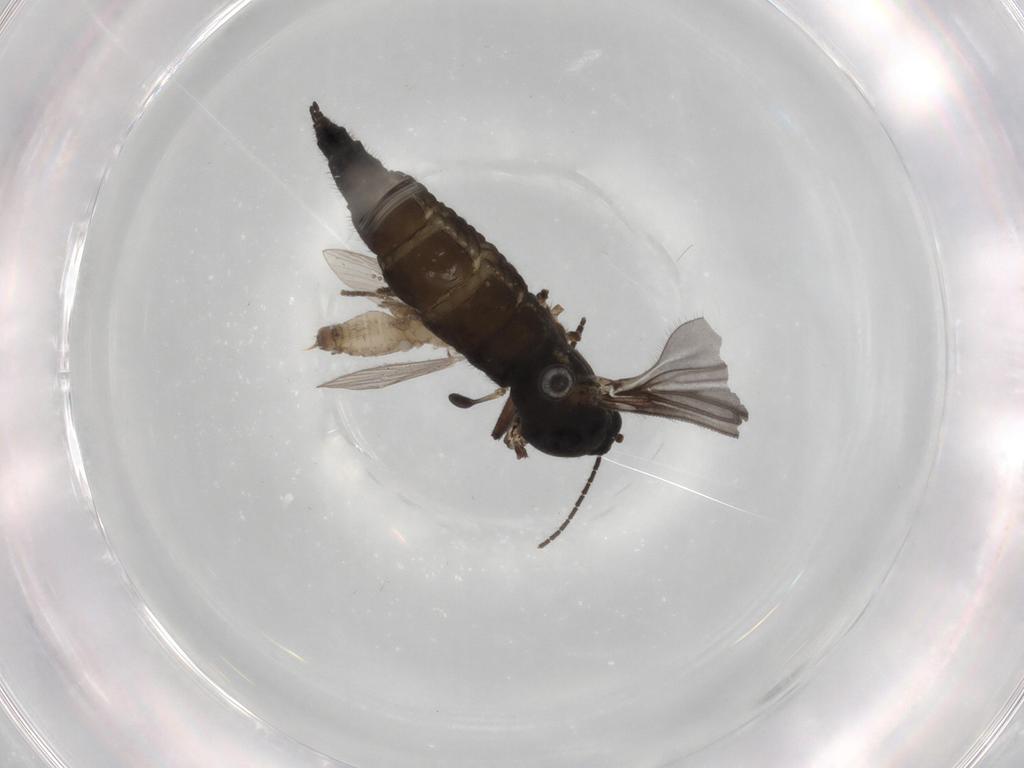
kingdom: Animalia
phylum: Arthropoda
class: Insecta
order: Diptera
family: Psychodidae
